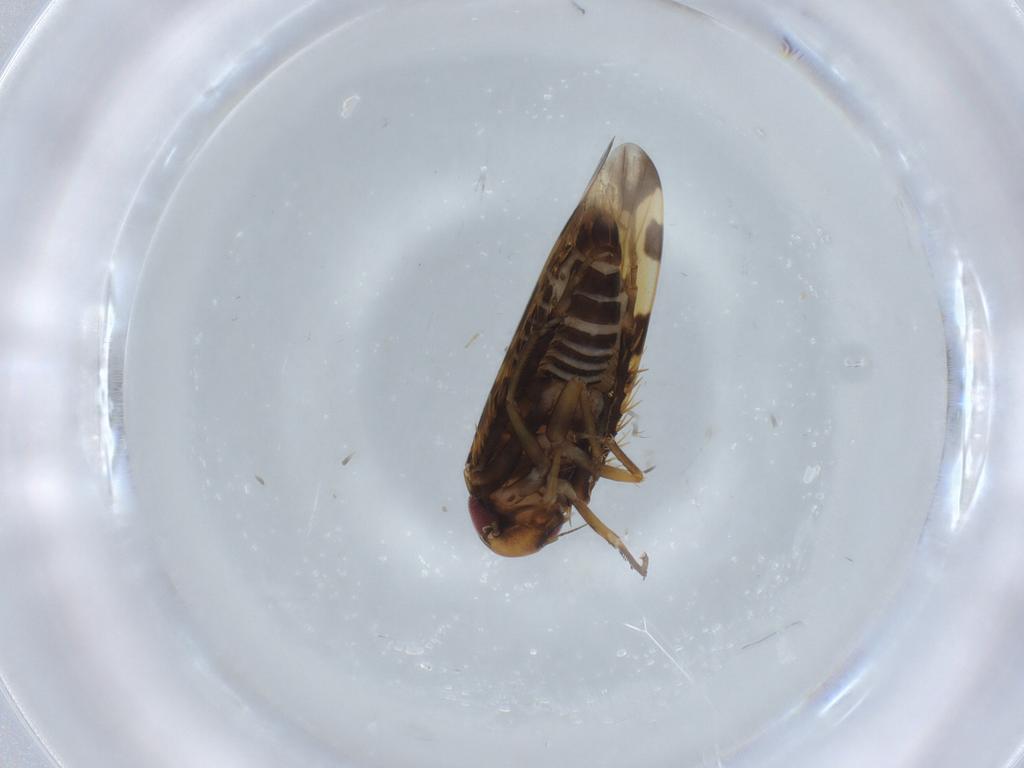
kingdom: Animalia
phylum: Arthropoda
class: Insecta
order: Hemiptera
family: Cicadellidae
